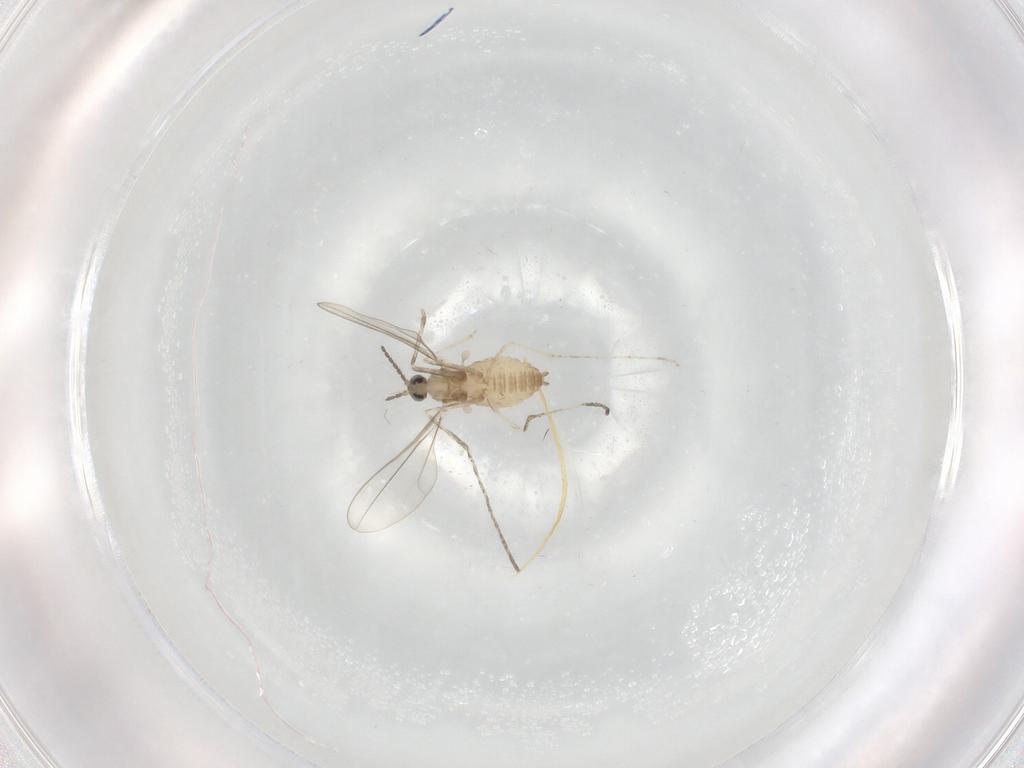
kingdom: Animalia
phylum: Arthropoda
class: Insecta
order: Diptera
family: Cecidomyiidae
